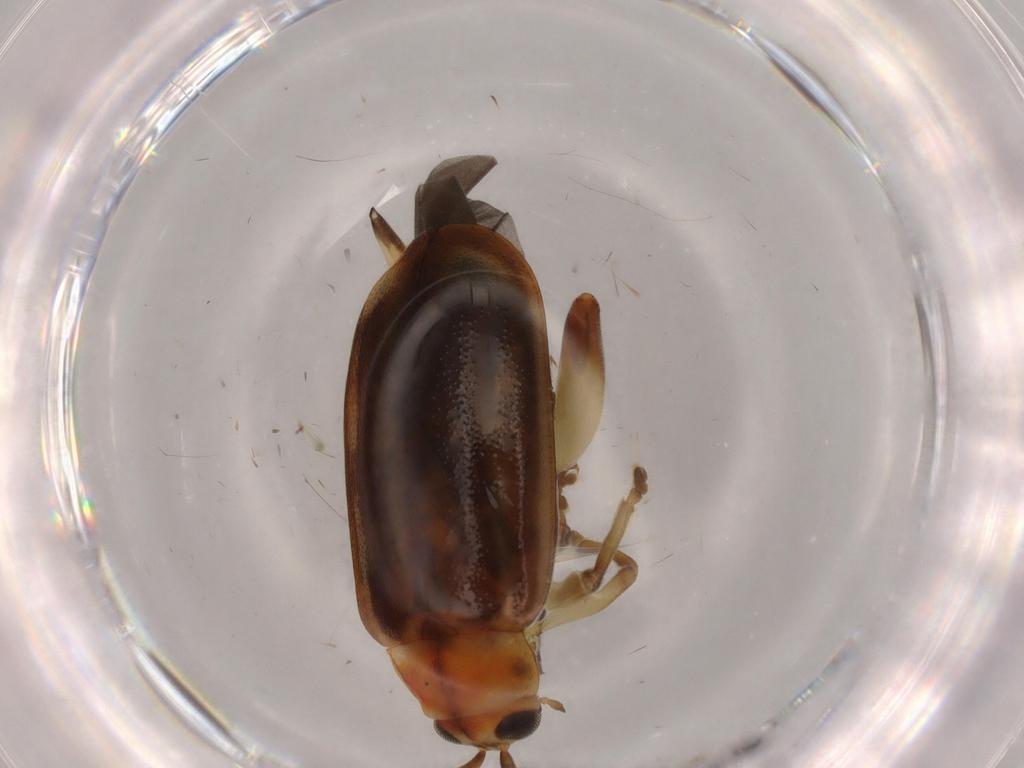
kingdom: Animalia
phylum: Arthropoda
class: Insecta
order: Coleoptera
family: Chrysomelidae
